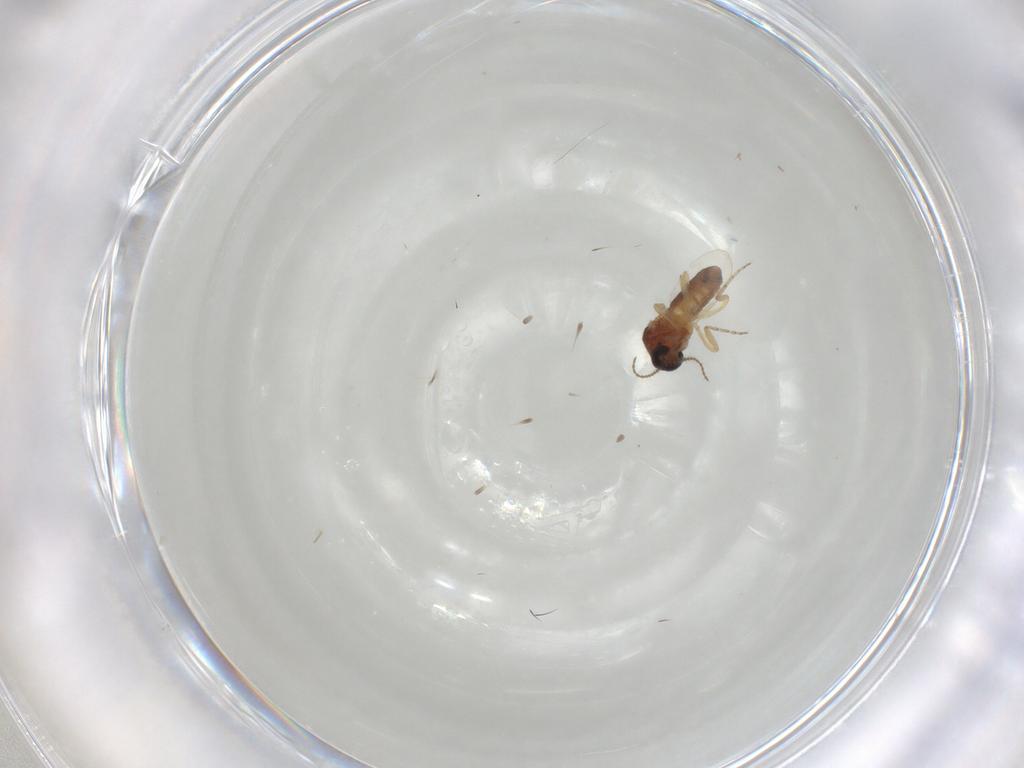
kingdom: Animalia
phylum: Arthropoda
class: Insecta
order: Diptera
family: Ceratopogonidae
